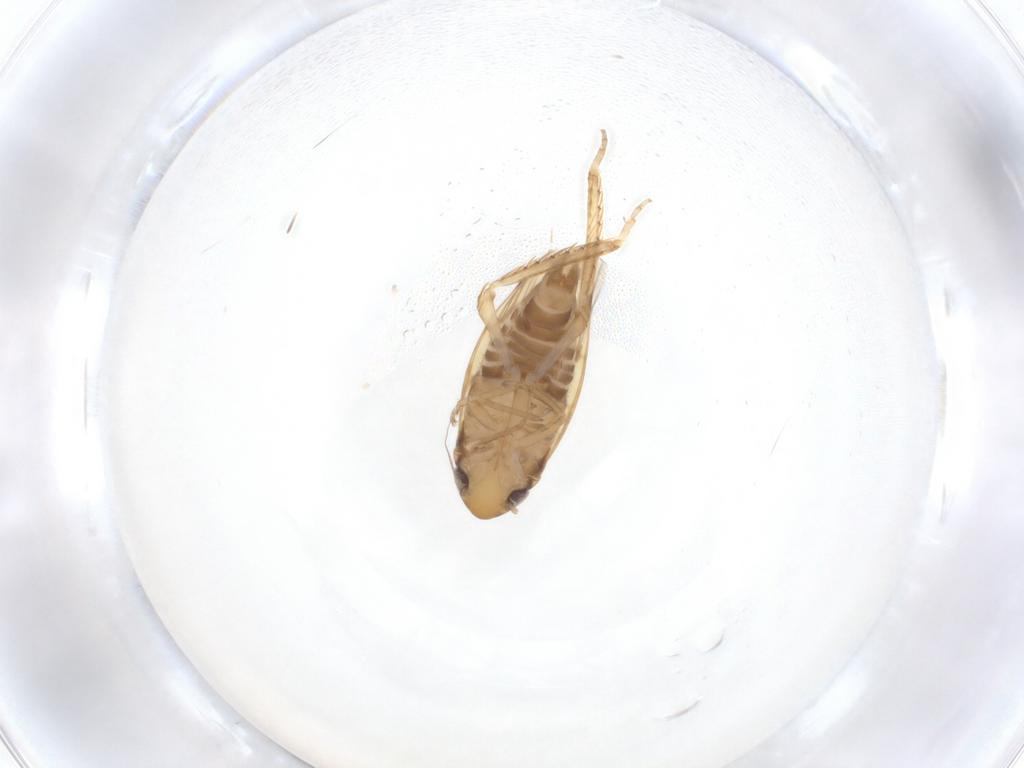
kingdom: Animalia
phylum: Arthropoda
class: Insecta
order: Hemiptera
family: Cicadellidae
